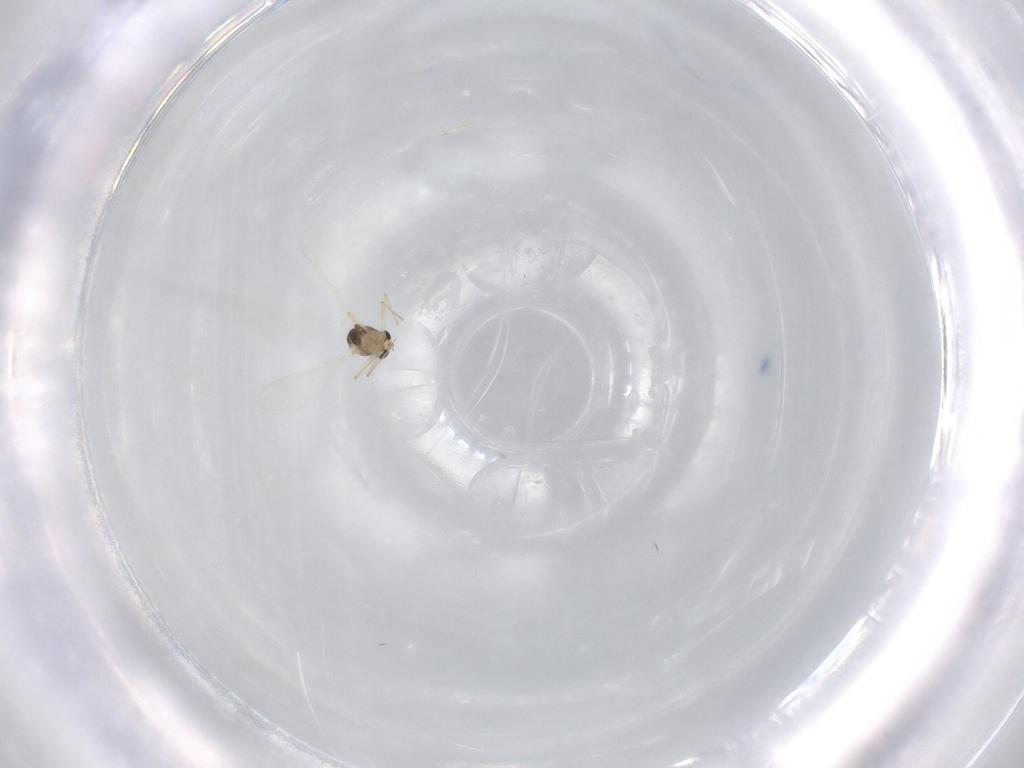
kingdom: Animalia
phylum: Arthropoda
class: Insecta
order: Diptera
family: Chironomidae
